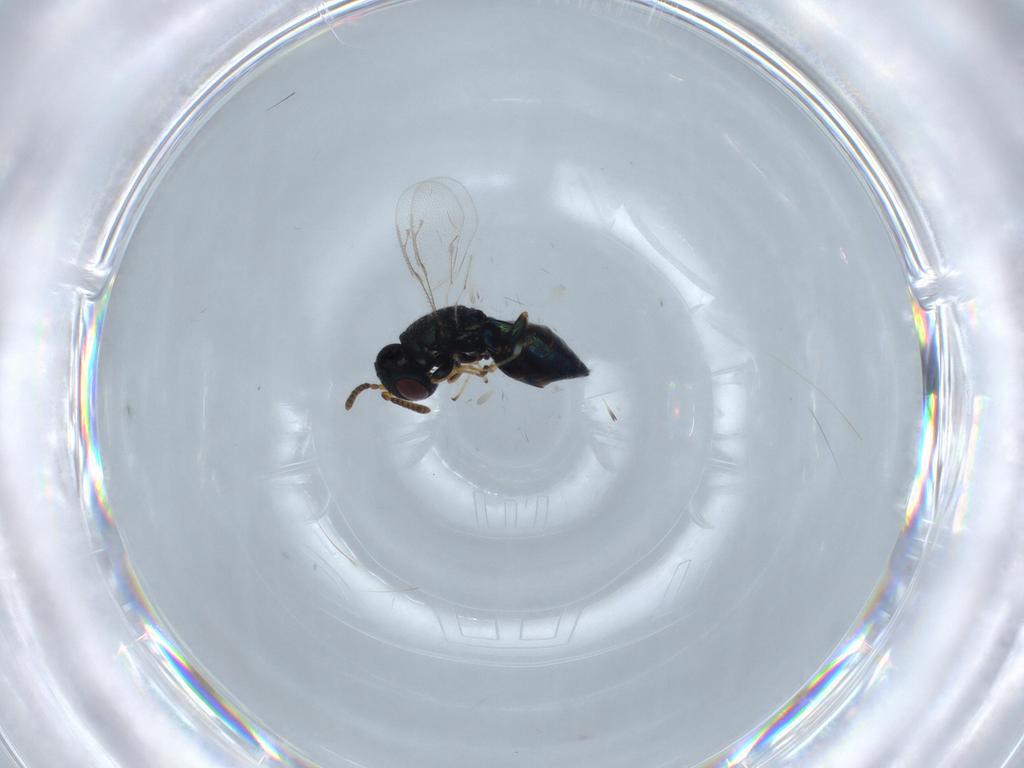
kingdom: Animalia
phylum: Arthropoda
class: Insecta
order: Hymenoptera
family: Pteromalidae
